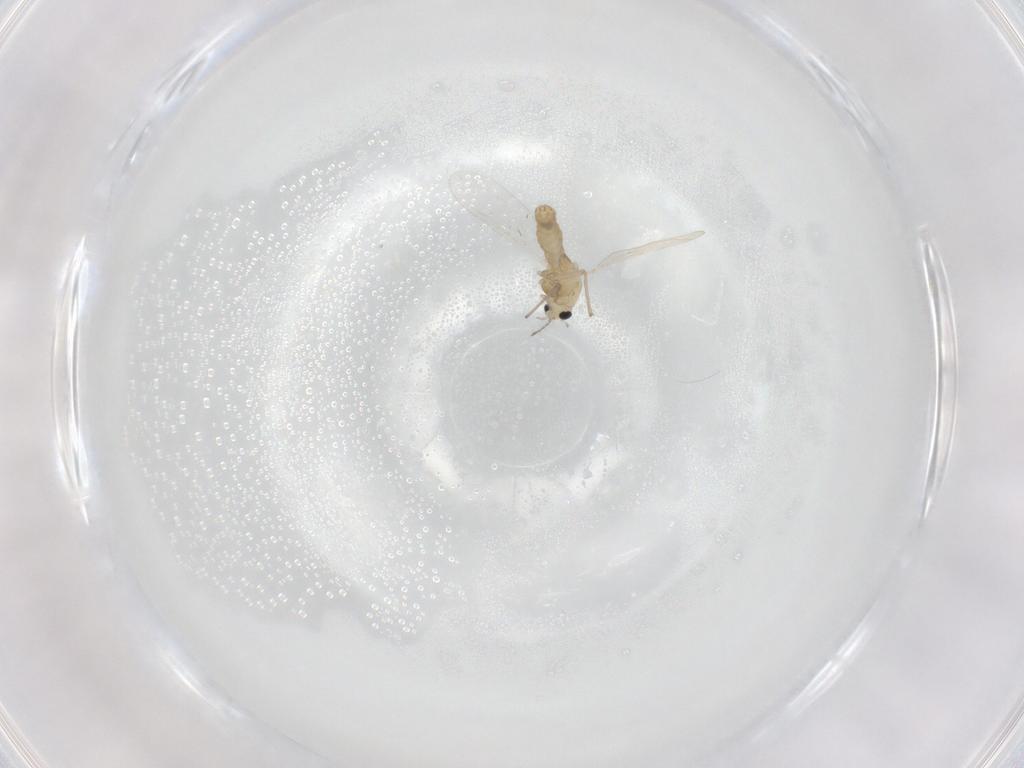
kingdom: Animalia
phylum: Arthropoda
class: Insecta
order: Diptera
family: Chironomidae
